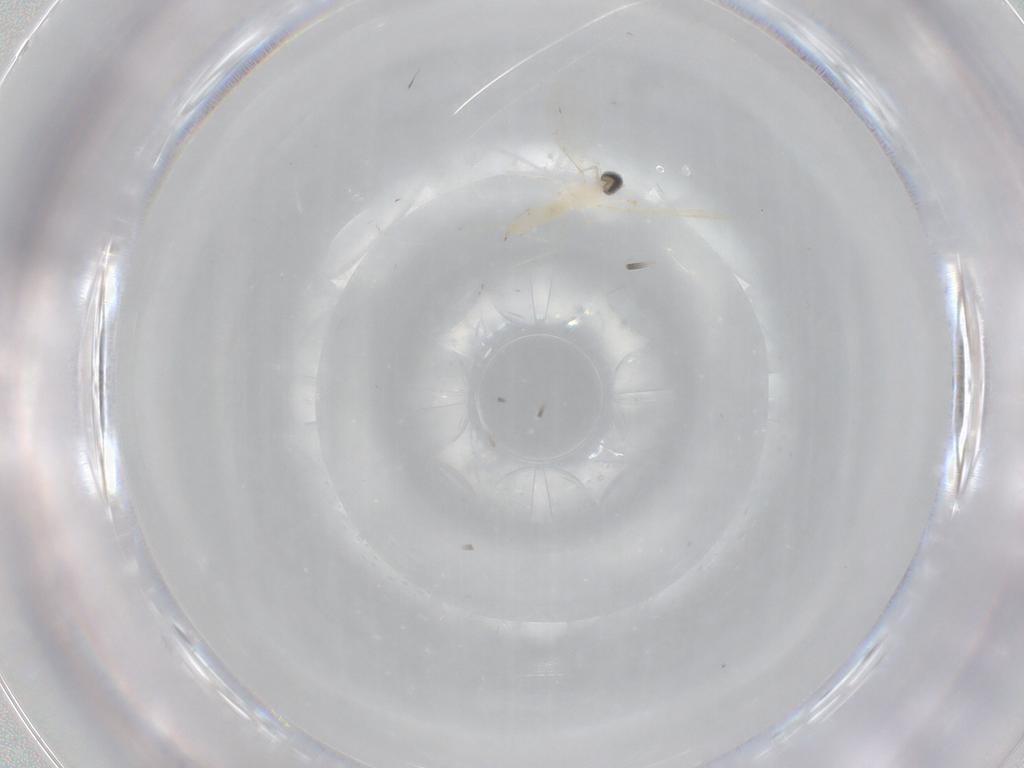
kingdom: Animalia
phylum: Arthropoda
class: Insecta
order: Diptera
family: Cecidomyiidae
